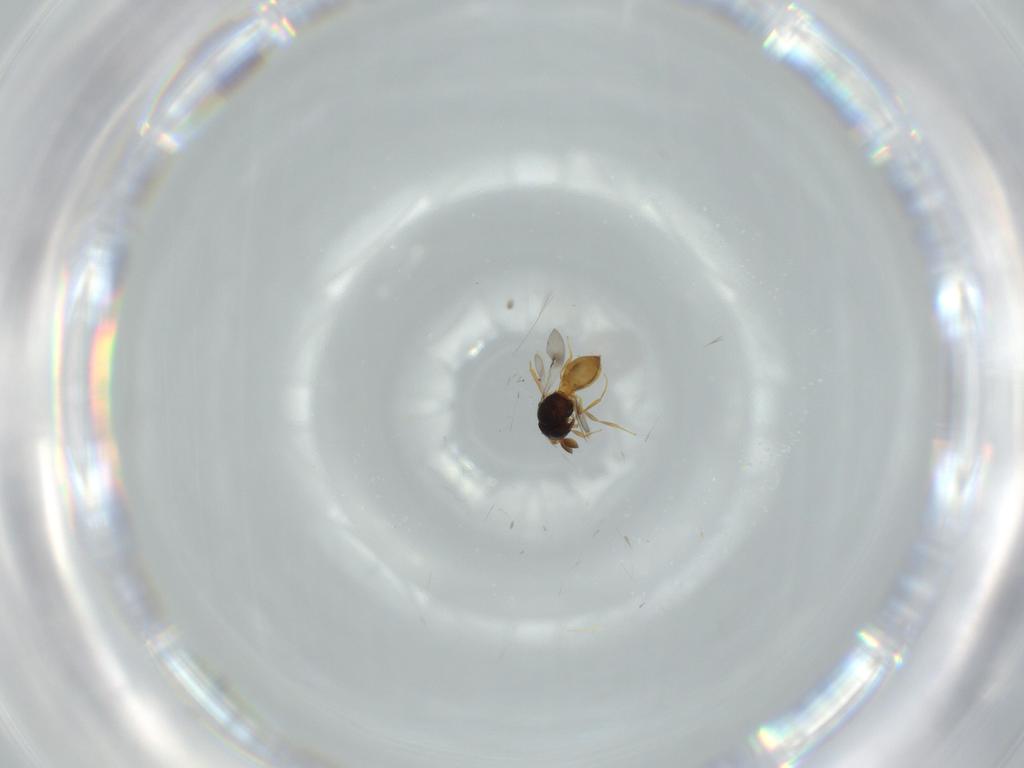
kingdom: Animalia
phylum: Arthropoda
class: Insecta
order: Hymenoptera
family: Scelionidae
